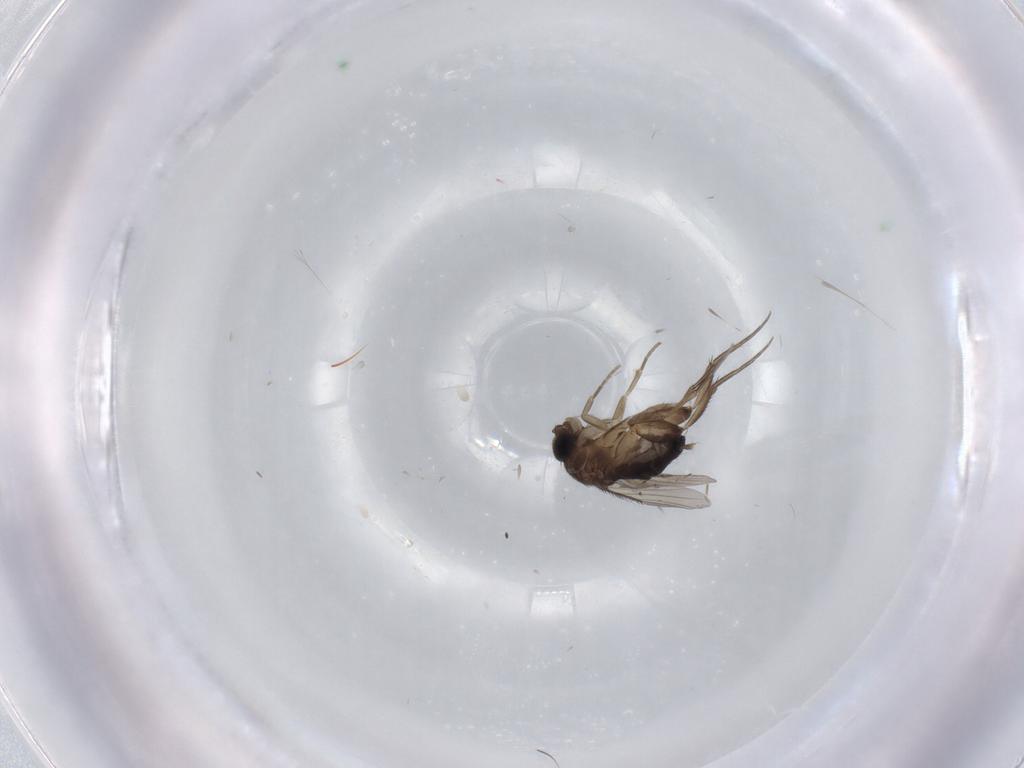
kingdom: Animalia
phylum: Arthropoda
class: Insecta
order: Diptera
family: Phoridae
